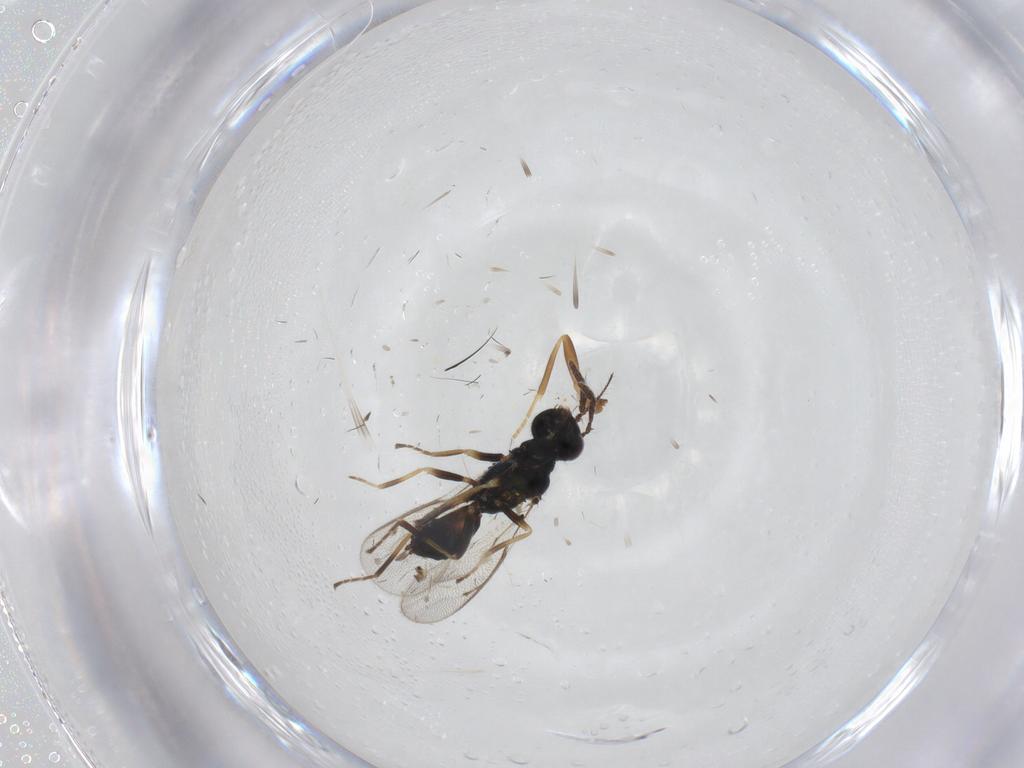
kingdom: Animalia
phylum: Arthropoda
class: Insecta
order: Hymenoptera
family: Eulophidae
